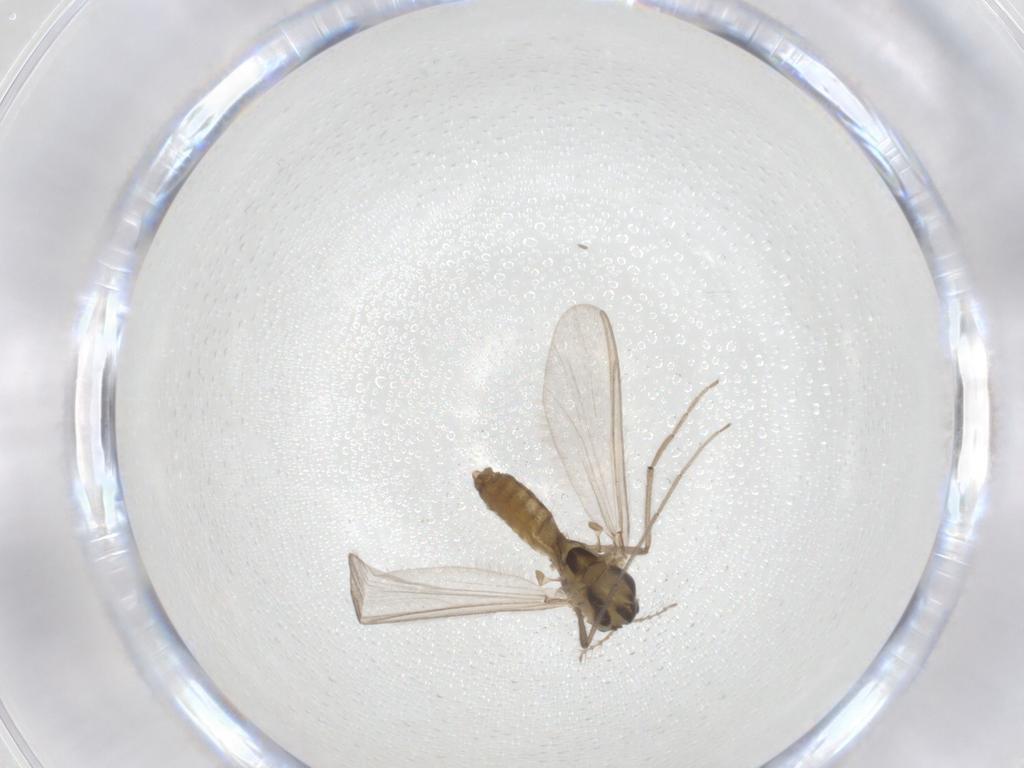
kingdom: Animalia
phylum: Arthropoda
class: Insecta
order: Diptera
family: Chironomidae
